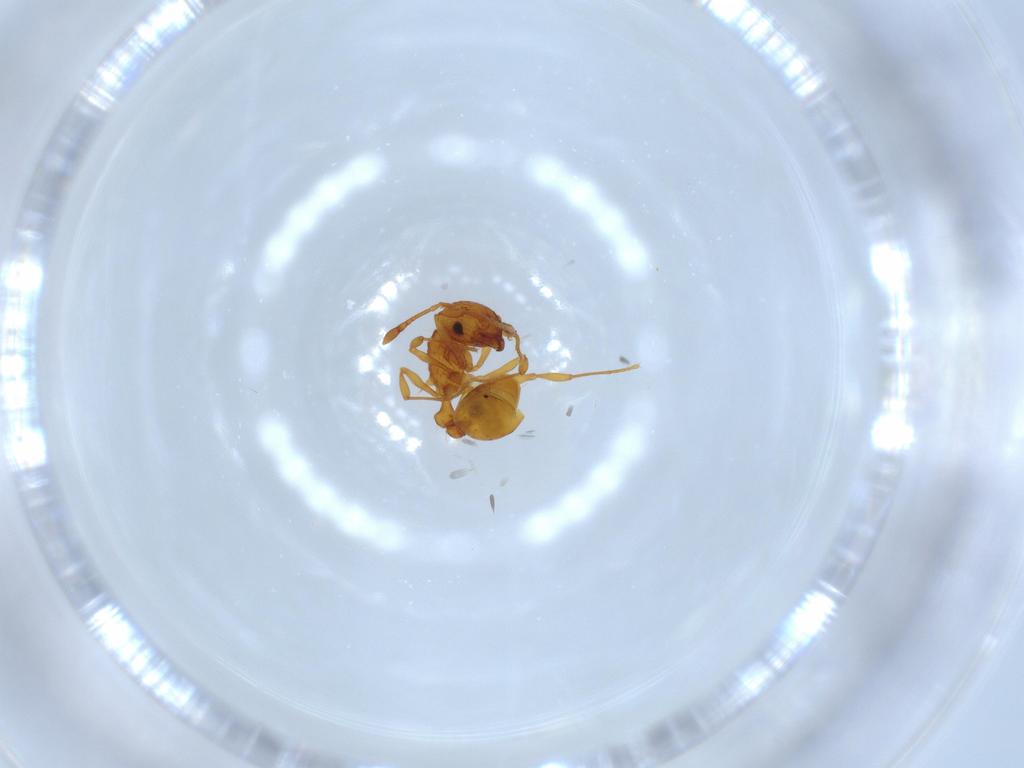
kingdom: Animalia
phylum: Arthropoda
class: Insecta
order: Hymenoptera
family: Formicidae
